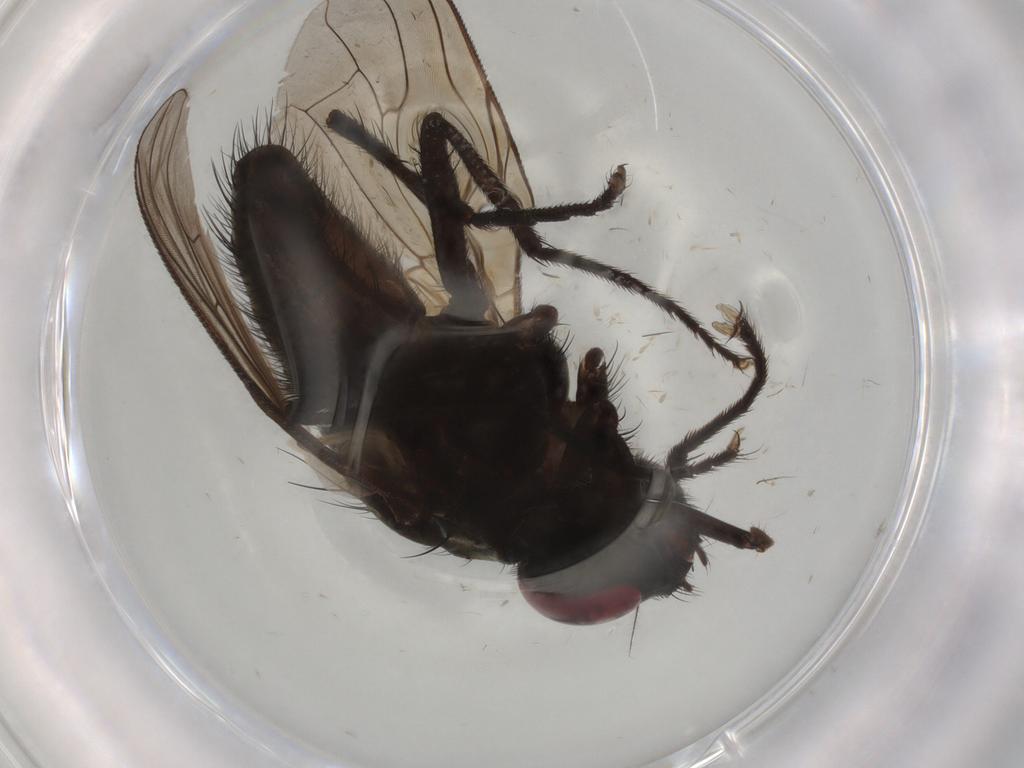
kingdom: Animalia
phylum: Arthropoda
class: Insecta
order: Diptera
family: Muscidae
